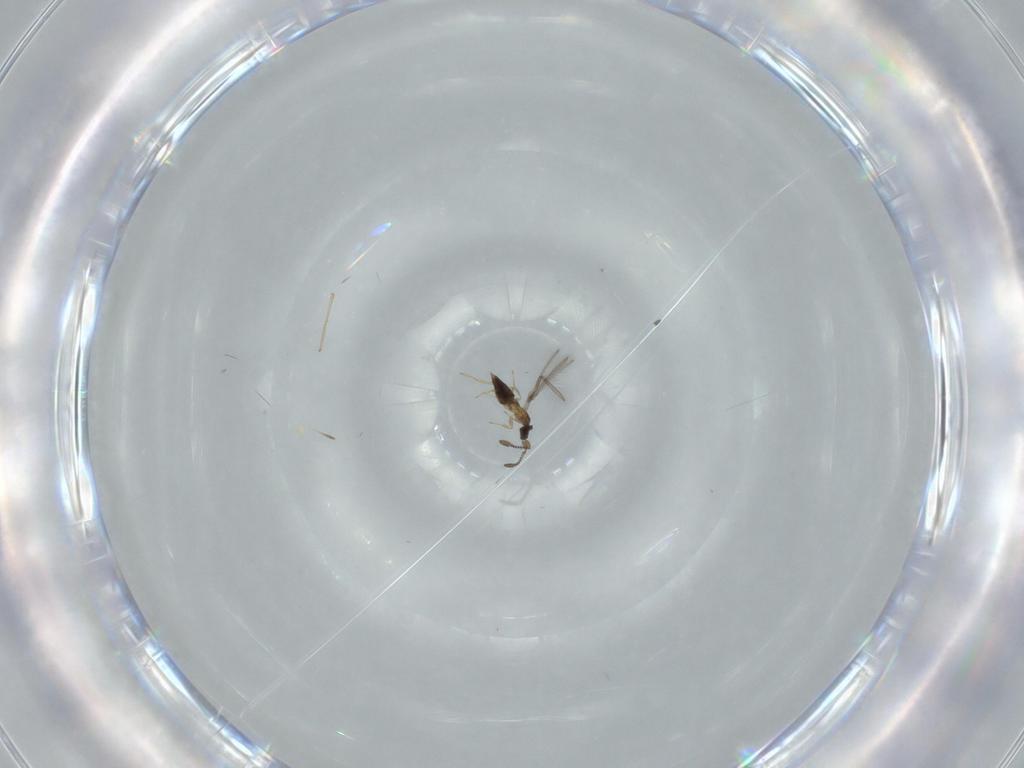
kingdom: Animalia
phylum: Arthropoda
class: Insecta
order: Hymenoptera
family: Mymaridae
